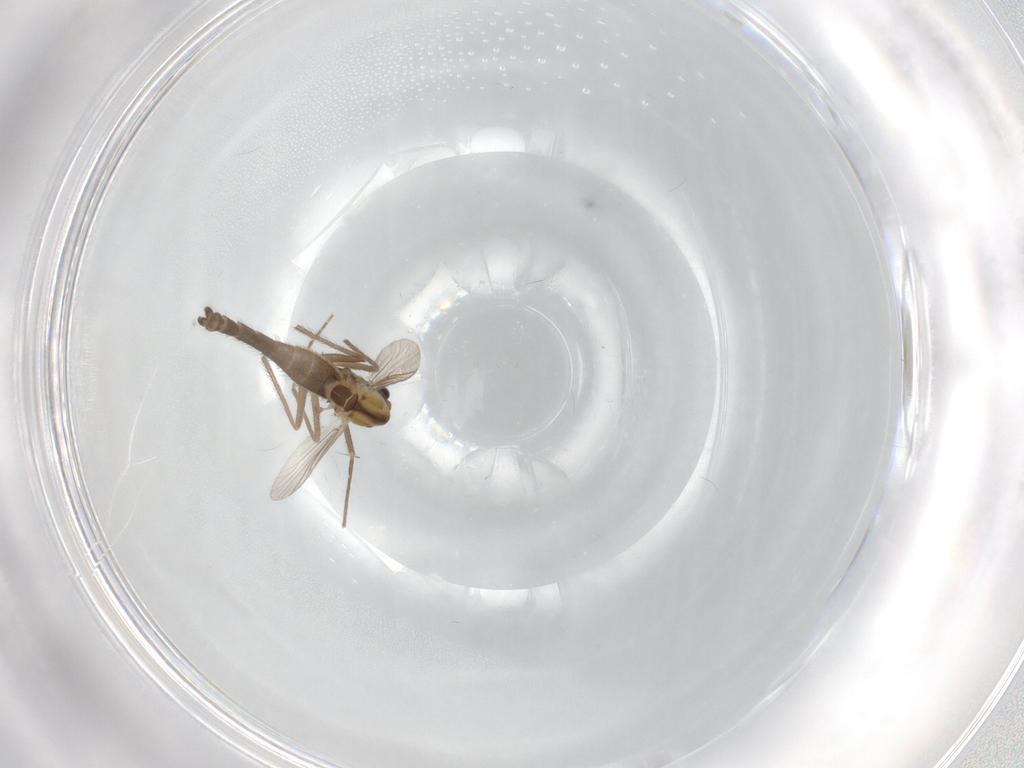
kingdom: Animalia
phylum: Arthropoda
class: Insecta
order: Diptera
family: Chironomidae
